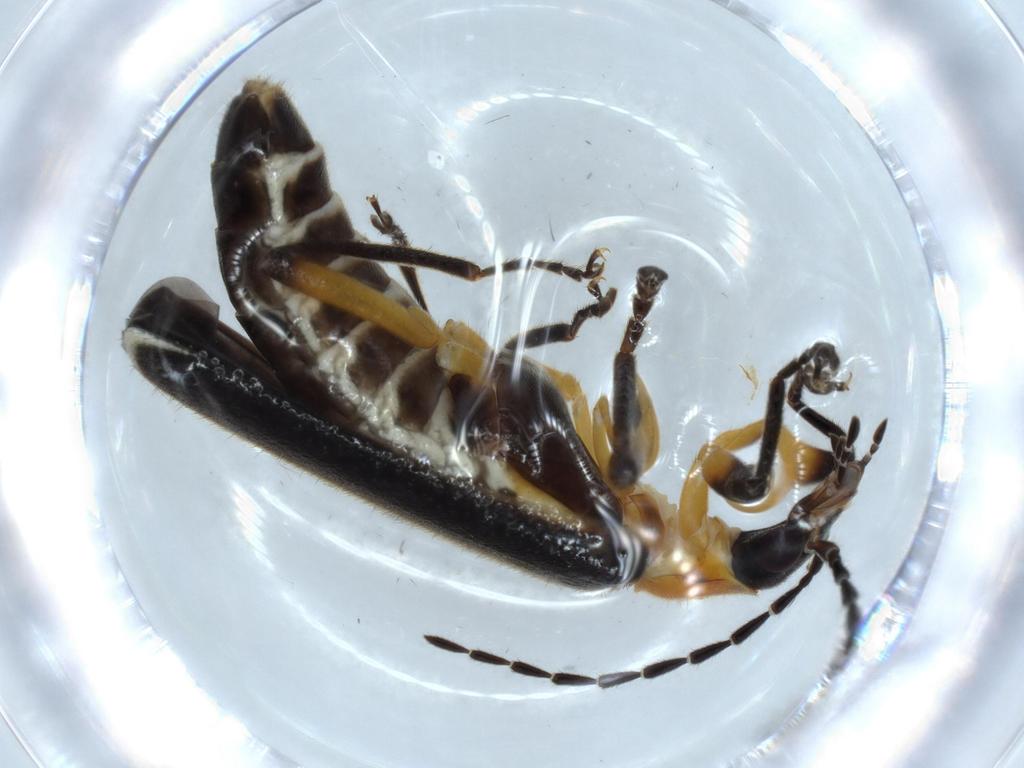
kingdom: Animalia
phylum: Arthropoda
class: Insecta
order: Coleoptera
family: Cantharidae
